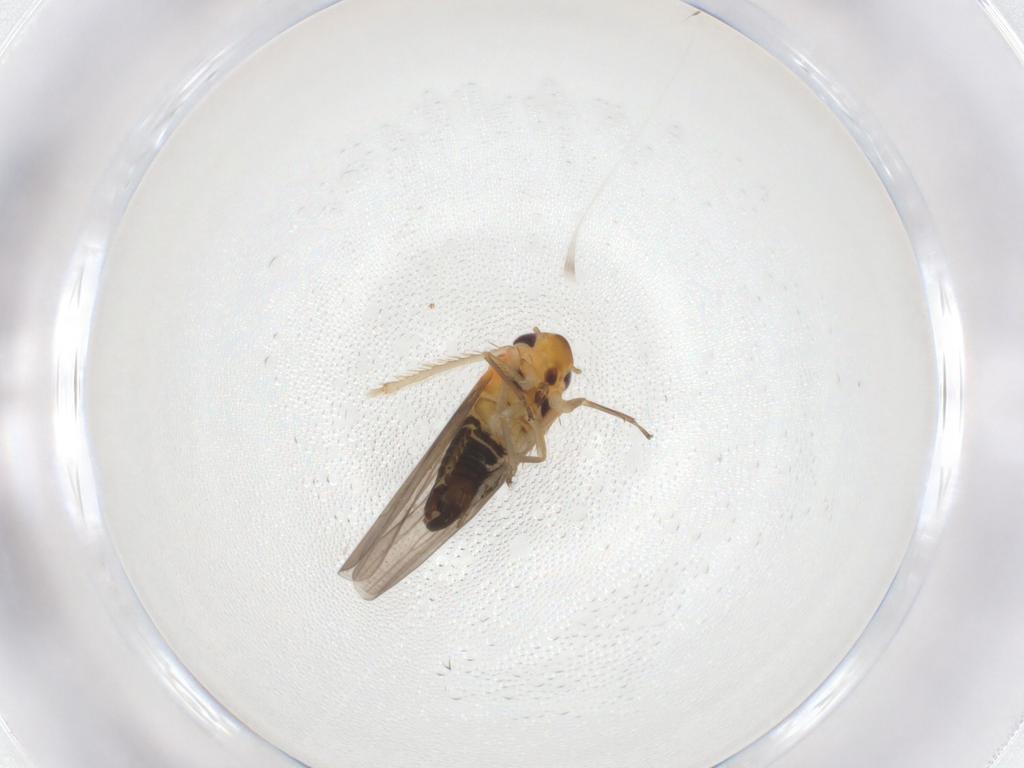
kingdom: Animalia
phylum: Arthropoda
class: Insecta
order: Hemiptera
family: Cicadellidae
